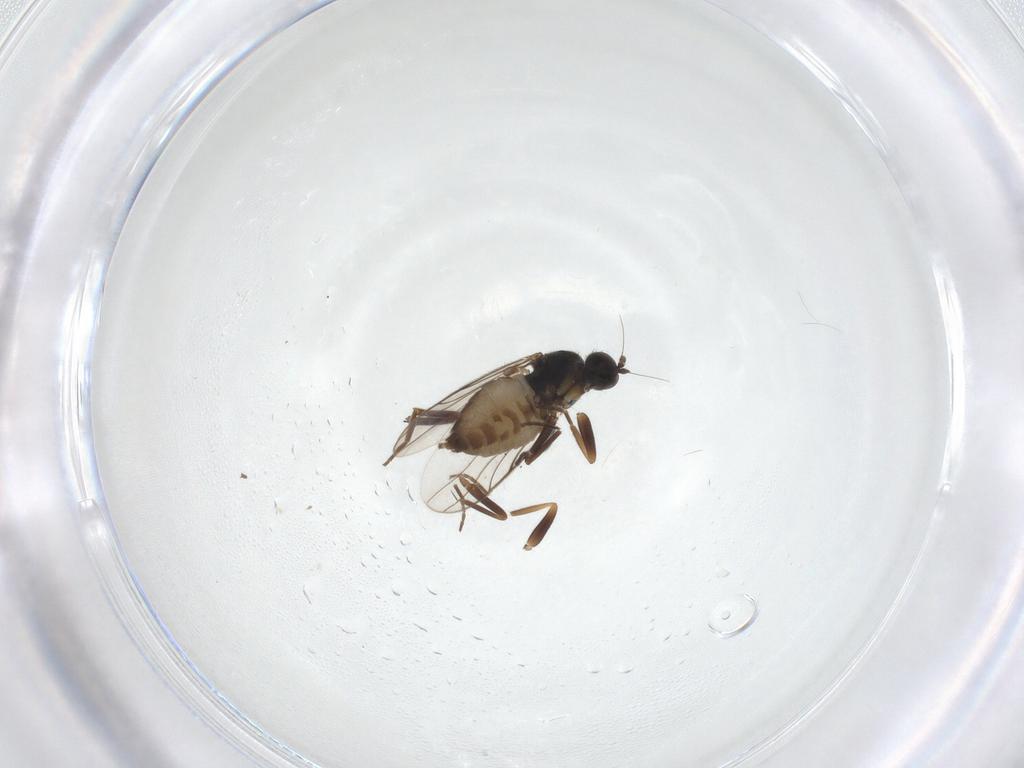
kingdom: Animalia
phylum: Arthropoda
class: Insecta
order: Diptera
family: Hybotidae
